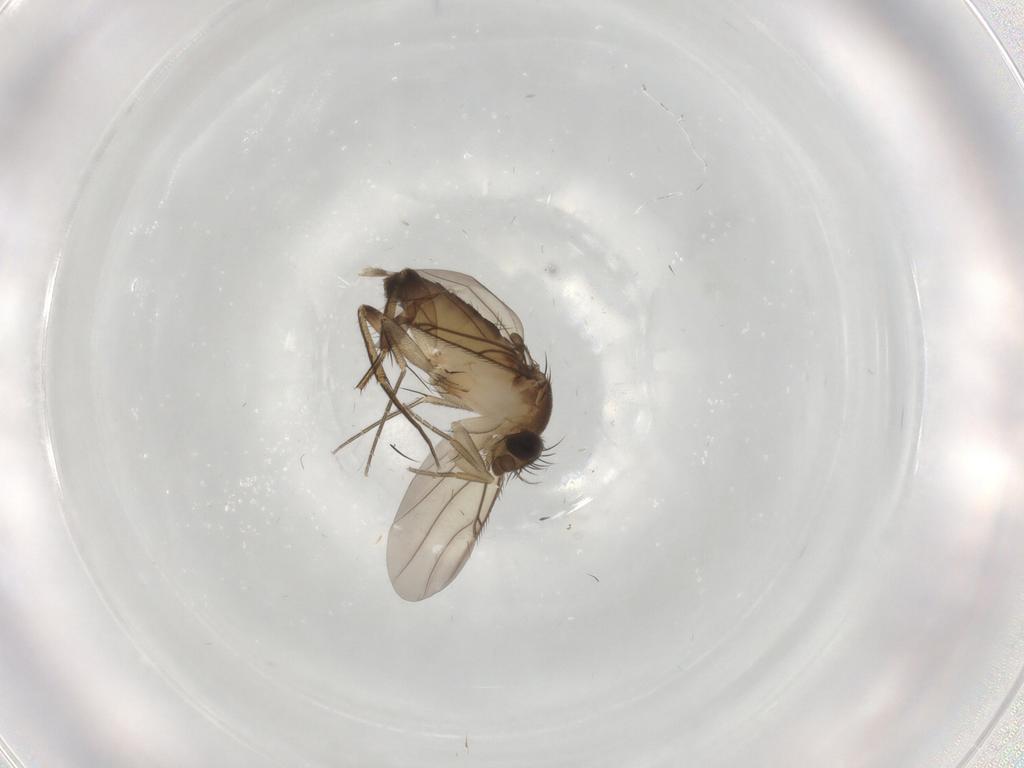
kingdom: Animalia
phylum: Arthropoda
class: Insecta
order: Diptera
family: Phoridae
